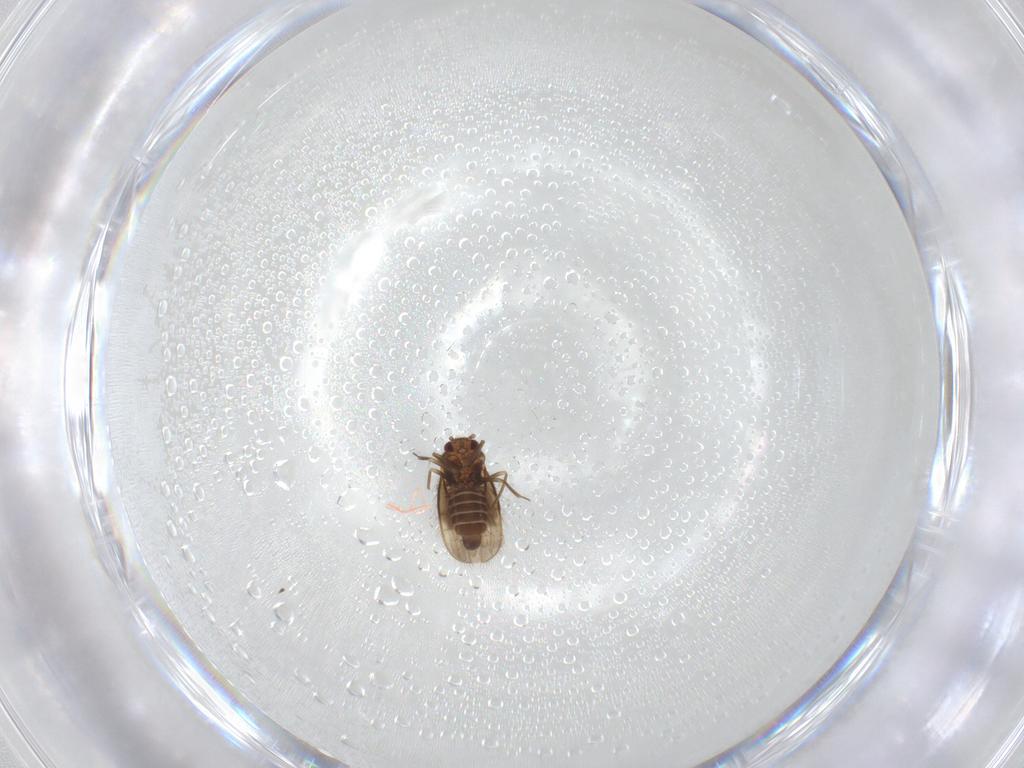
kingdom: Animalia
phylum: Arthropoda
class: Insecta
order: Hemiptera
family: Schizopteridae
